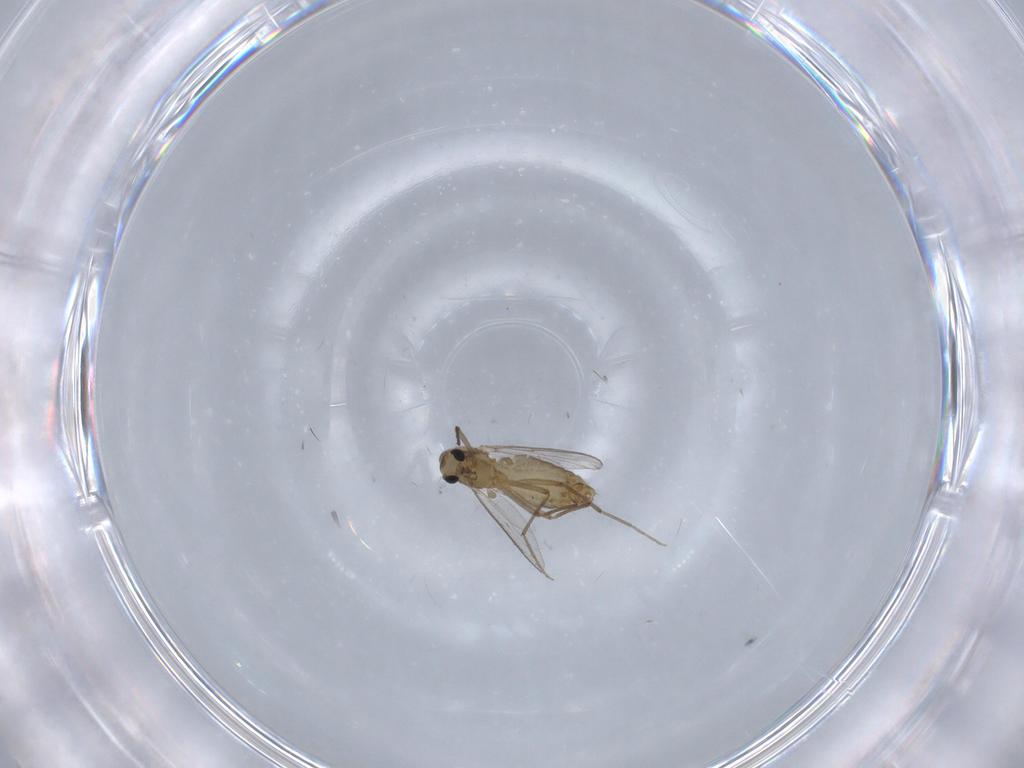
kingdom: Animalia
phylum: Arthropoda
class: Insecta
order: Diptera
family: Chironomidae
